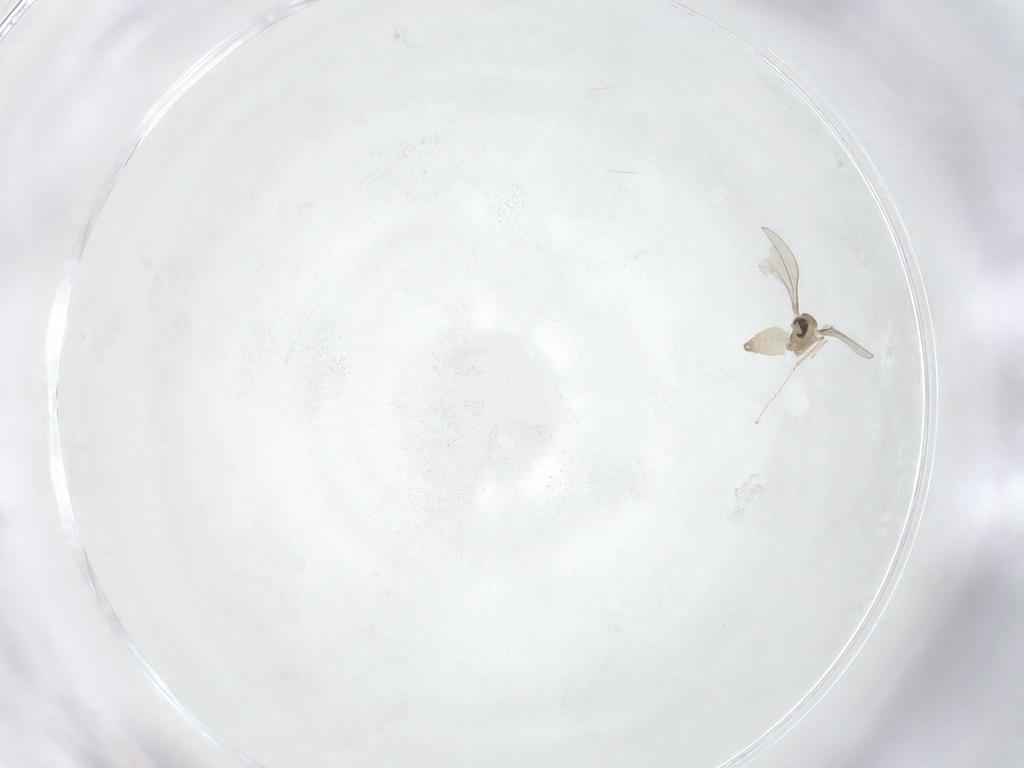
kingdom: Animalia
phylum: Arthropoda
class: Insecta
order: Diptera
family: Cecidomyiidae
